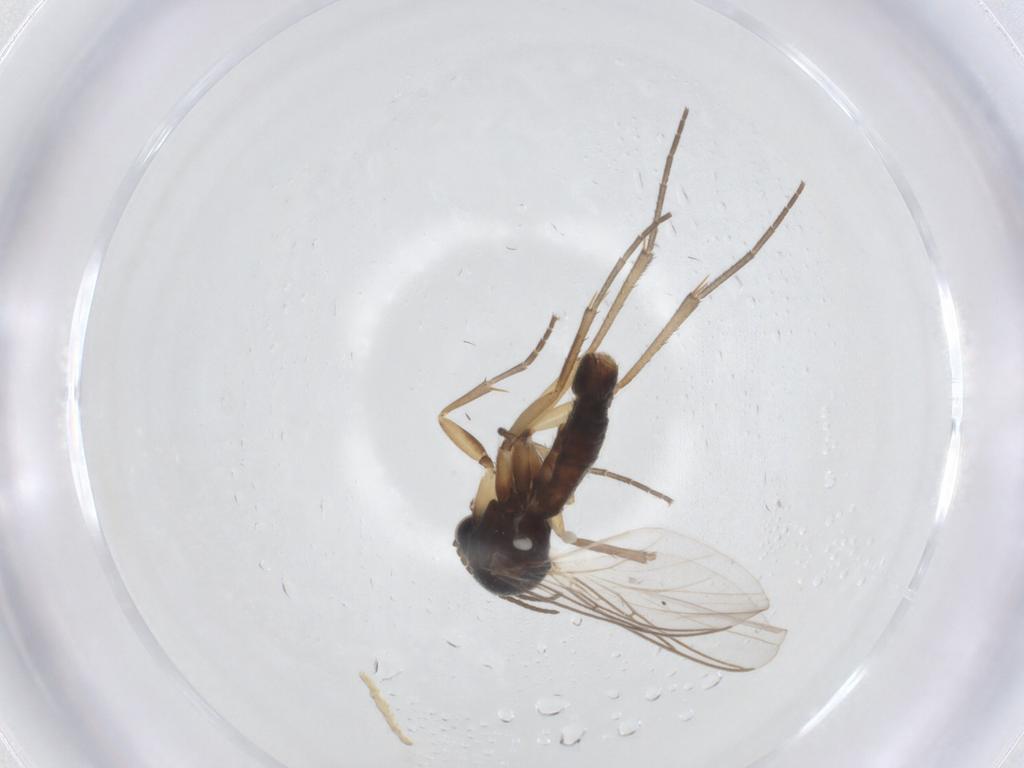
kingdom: Animalia
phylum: Arthropoda
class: Insecta
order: Diptera
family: Mycetophilidae
